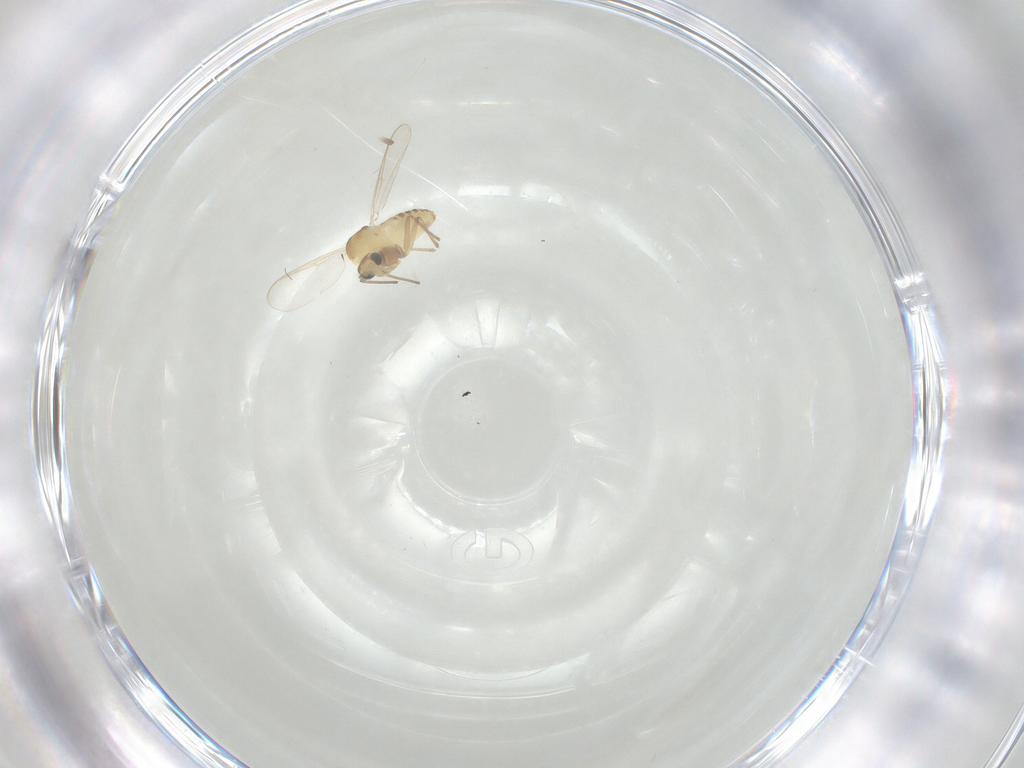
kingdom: Animalia
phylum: Arthropoda
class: Insecta
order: Diptera
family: Chironomidae
